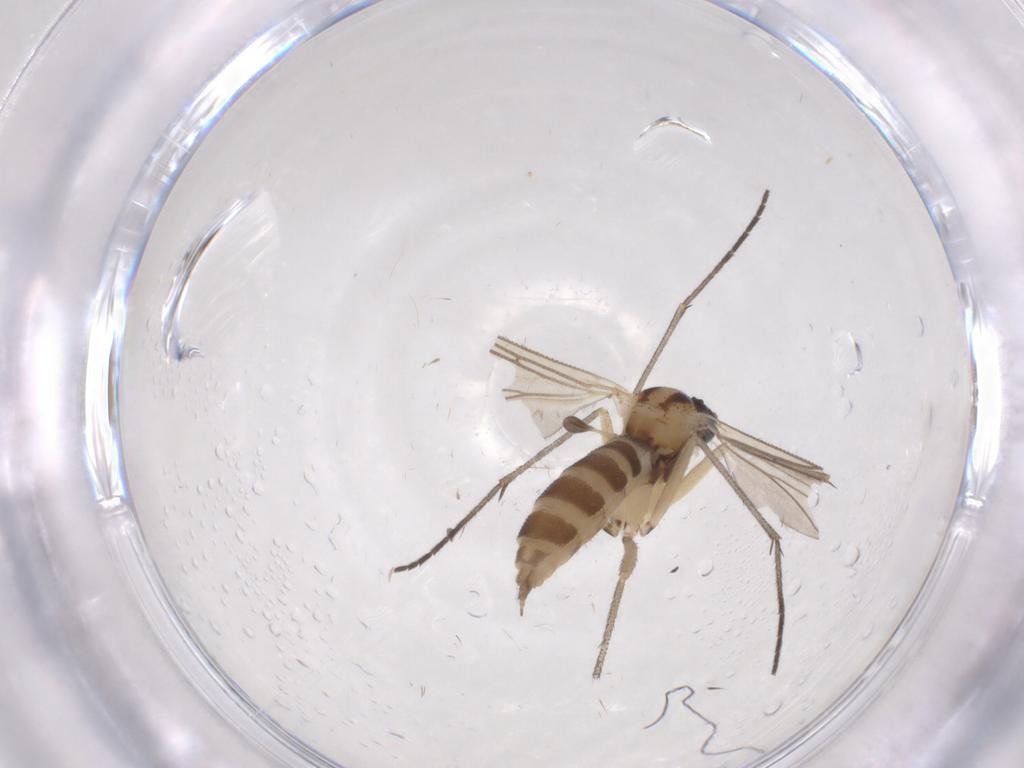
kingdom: Animalia
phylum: Arthropoda
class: Insecta
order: Diptera
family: Sciaridae
